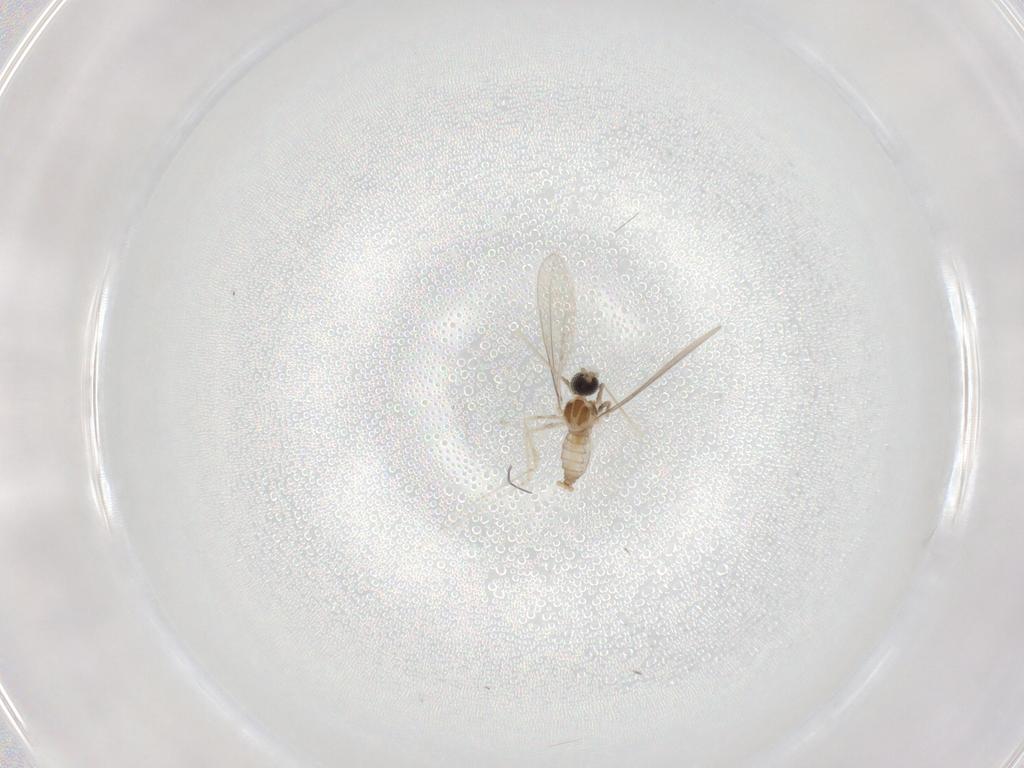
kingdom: Animalia
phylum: Arthropoda
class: Insecta
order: Diptera
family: Cecidomyiidae
